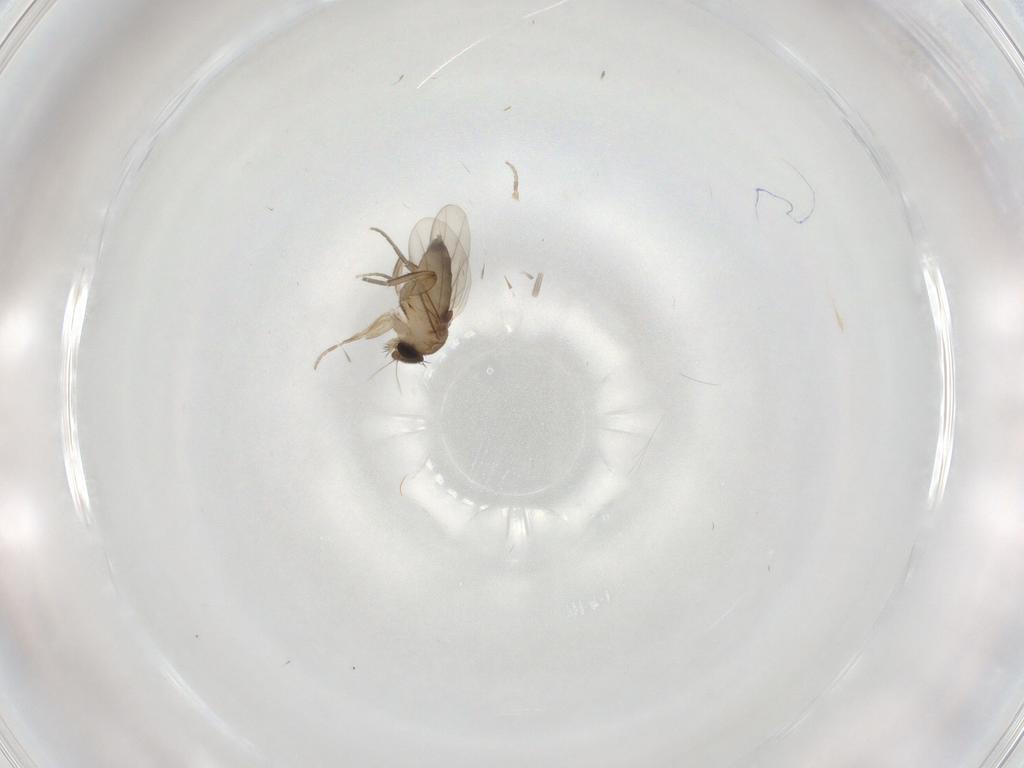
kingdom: Animalia
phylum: Arthropoda
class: Insecta
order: Diptera
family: Phoridae
